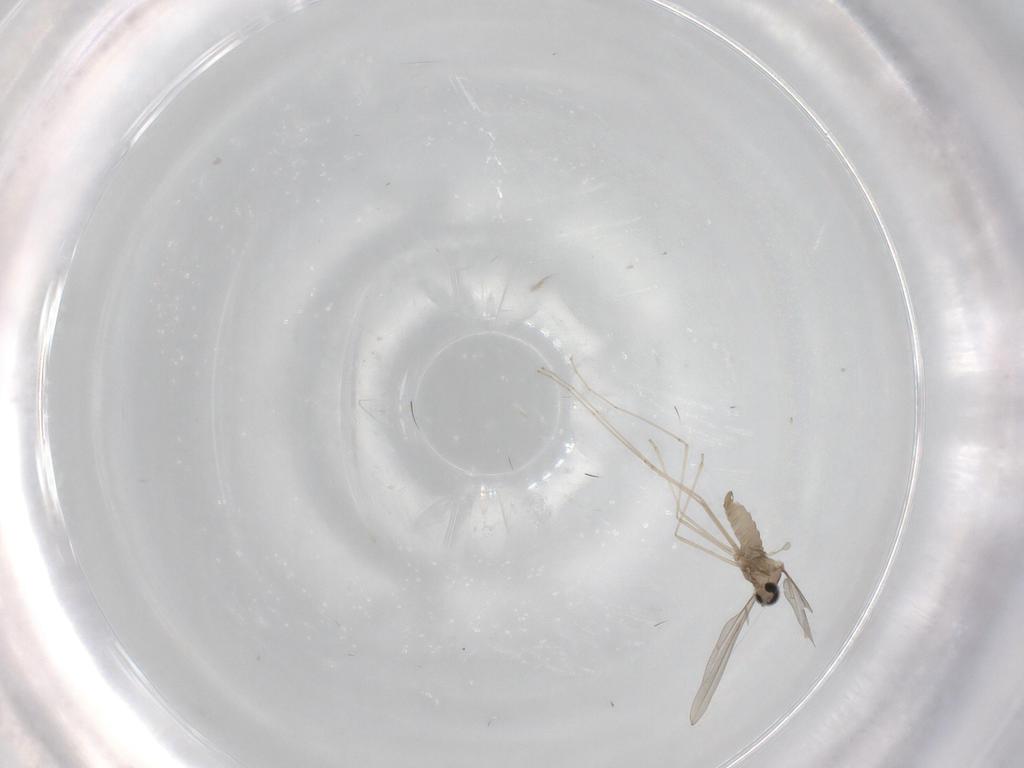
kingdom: Animalia
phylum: Arthropoda
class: Insecta
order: Diptera
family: Cecidomyiidae
